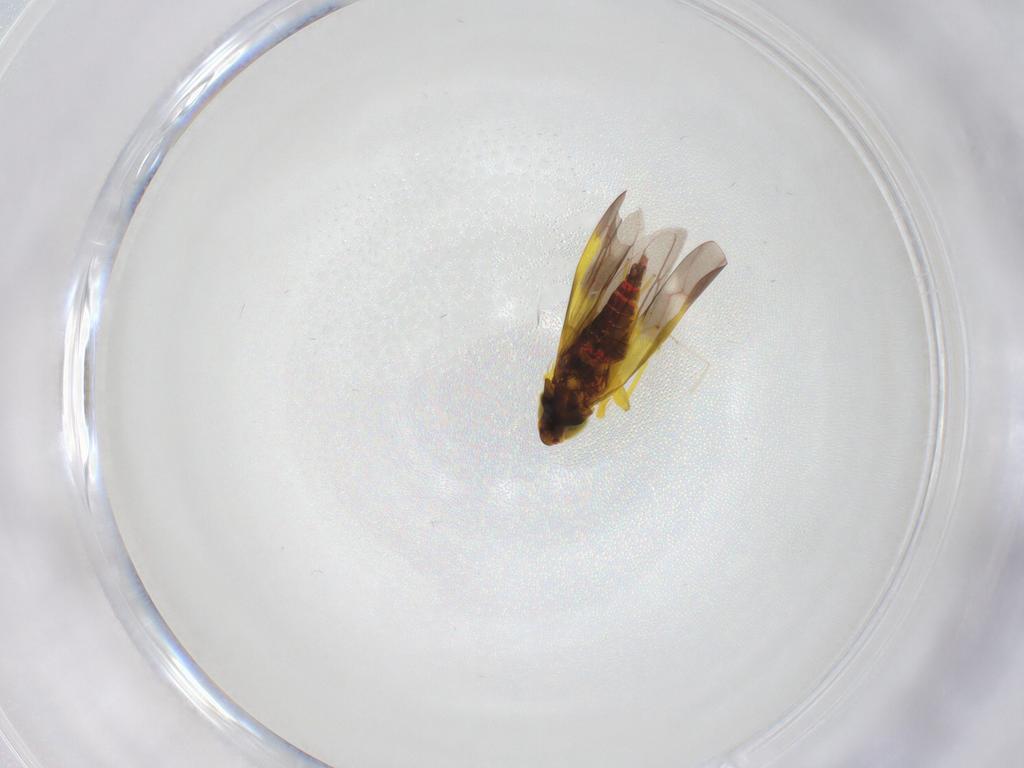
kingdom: Animalia
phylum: Arthropoda
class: Insecta
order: Hemiptera
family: Cicadellidae
